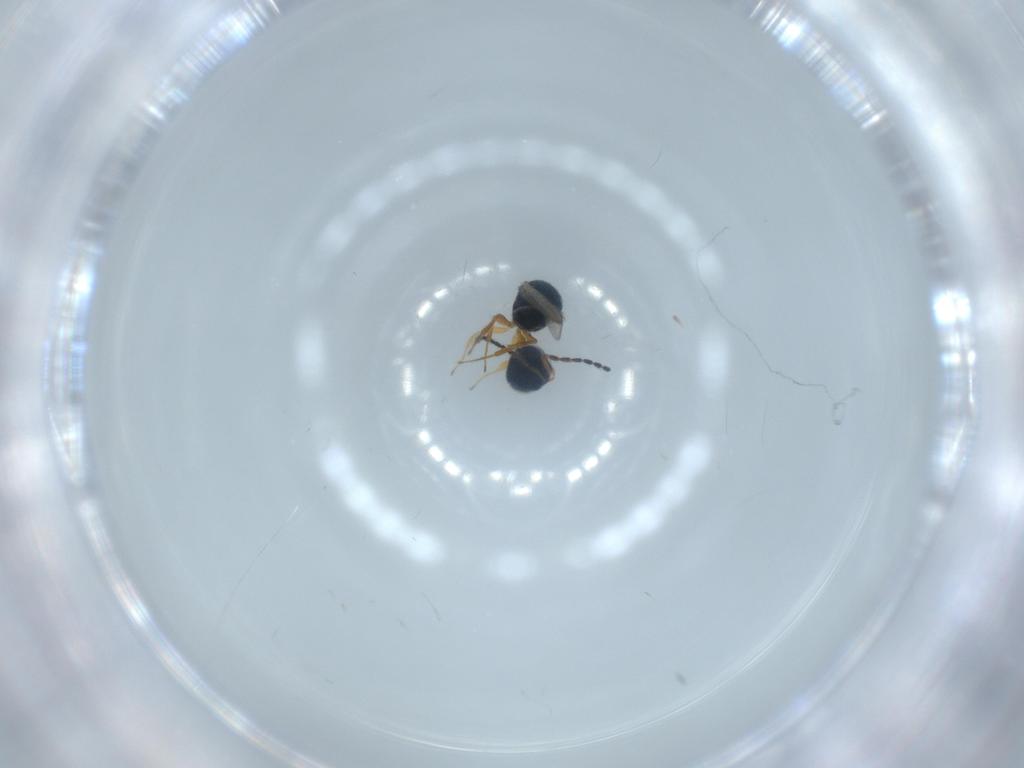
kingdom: Animalia
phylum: Arthropoda
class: Insecta
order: Hymenoptera
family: Scelionidae
